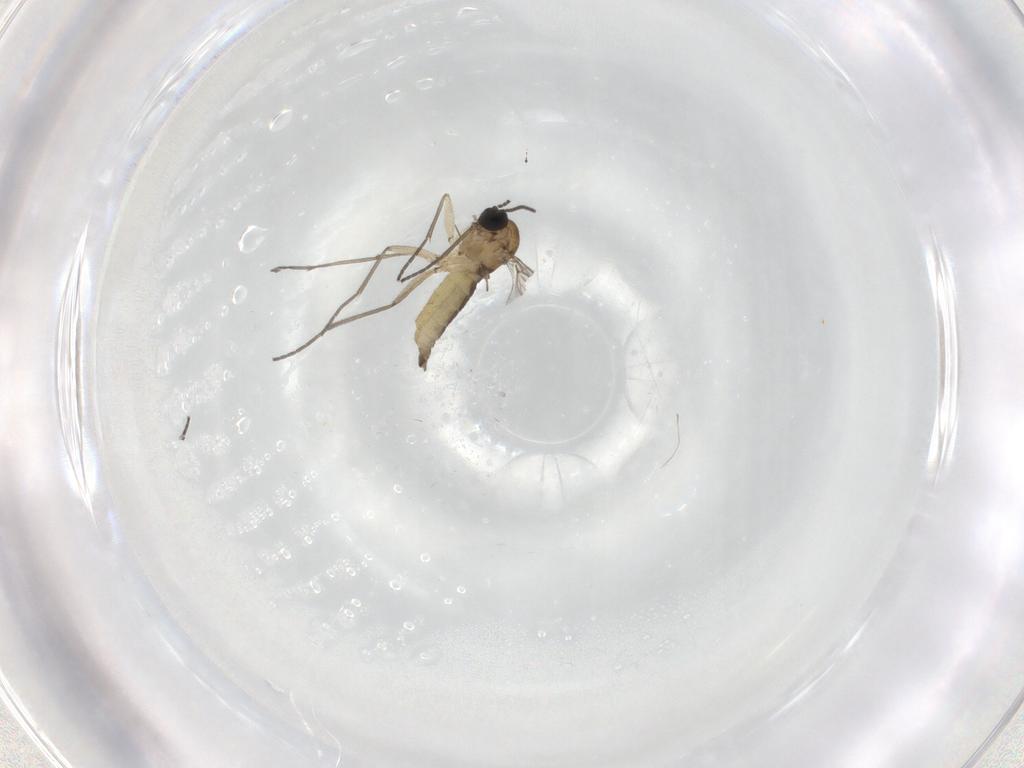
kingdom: Animalia
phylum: Arthropoda
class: Insecta
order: Diptera
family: Sciaridae
